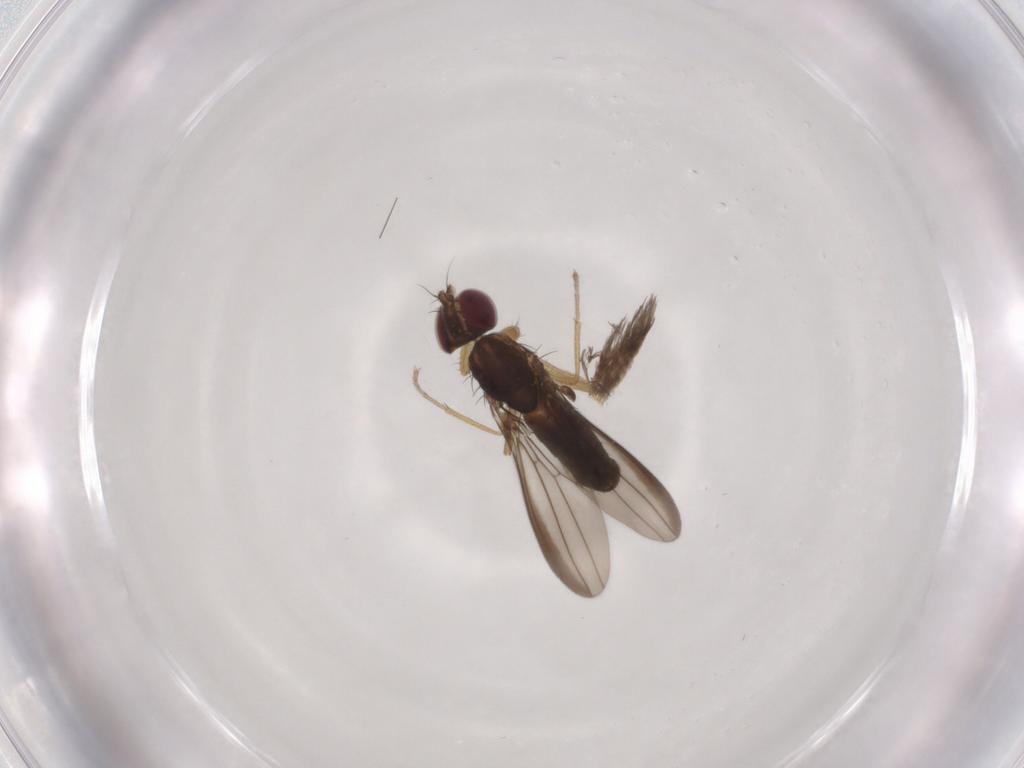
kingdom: Animalia
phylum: Arthropoda
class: Insecta
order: Diptera
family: Anthomyzidae
